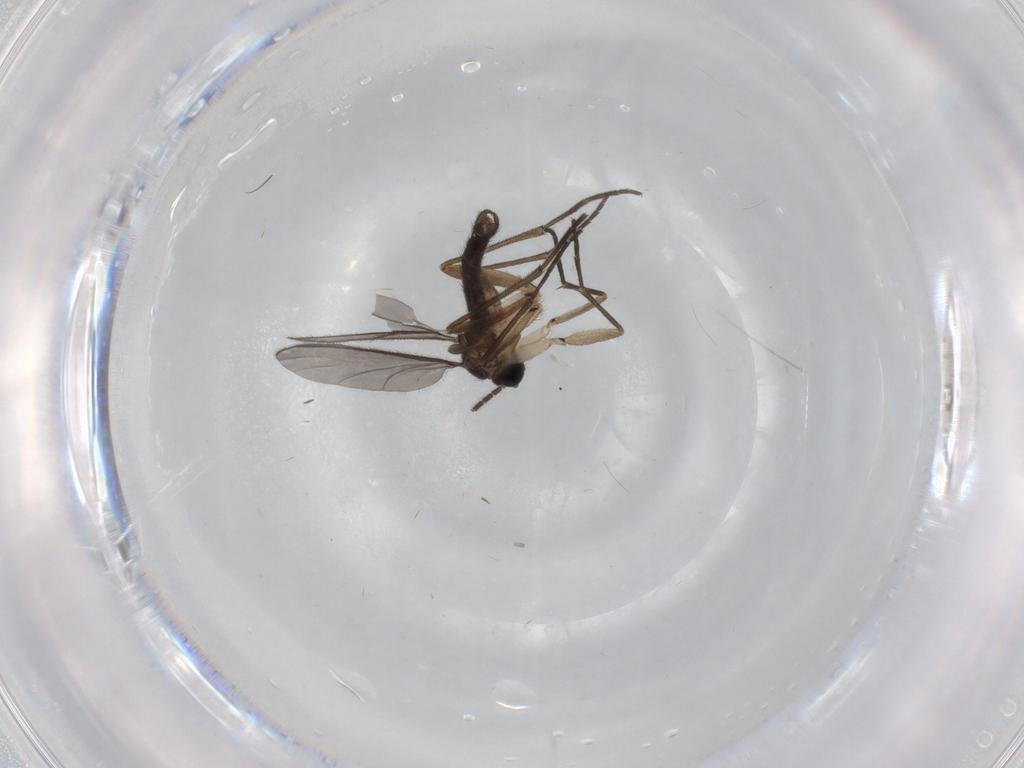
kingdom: Animalia
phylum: Arthropoda
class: Insecta
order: Diptera
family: Sciaridae
